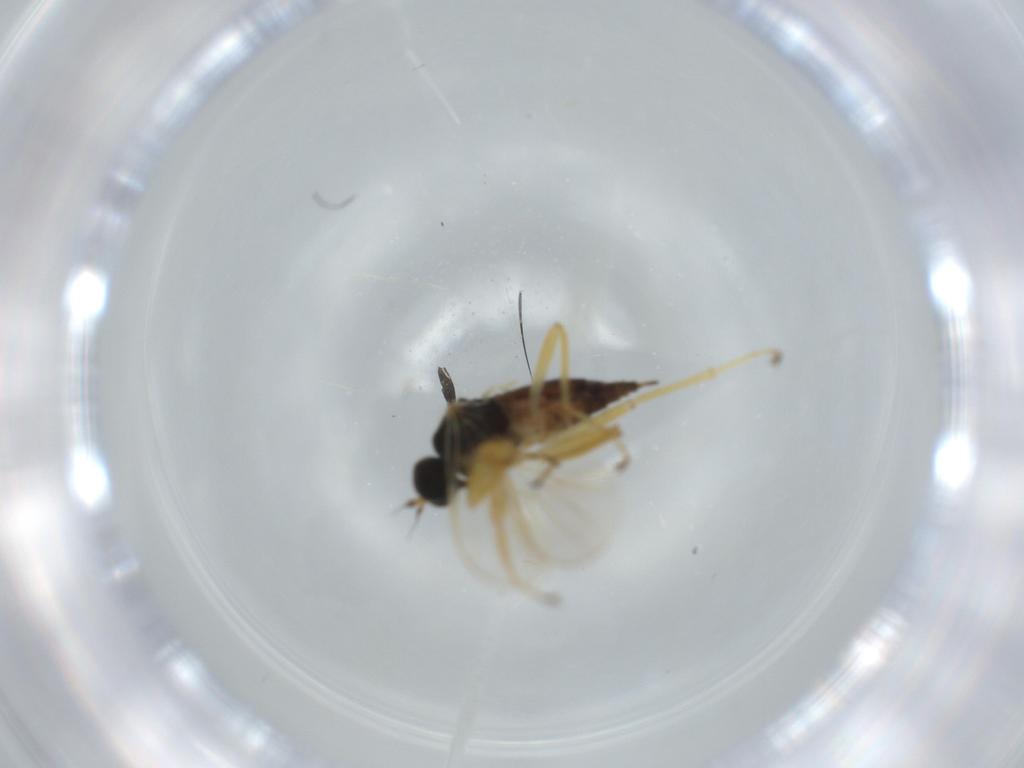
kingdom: Animalia
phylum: Arthropoda
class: Insecta
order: Diptera
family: Hybotidae
